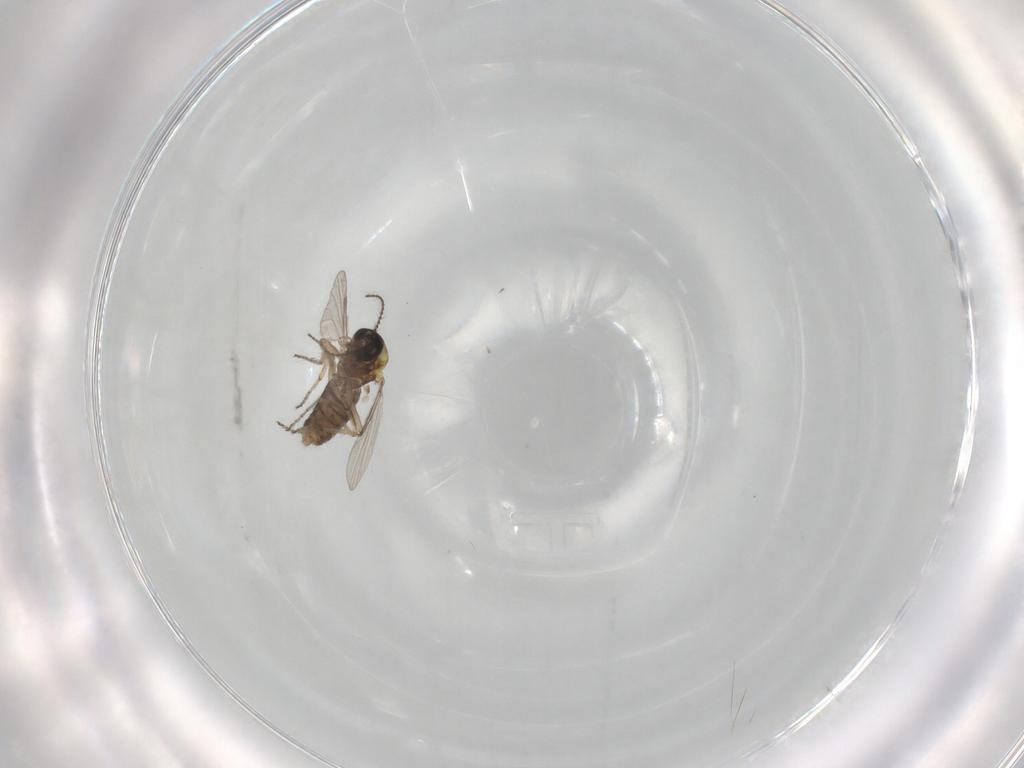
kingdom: Animalia
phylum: Arthropoda
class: Insecta
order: Diptera
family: Ceratopogonidae
